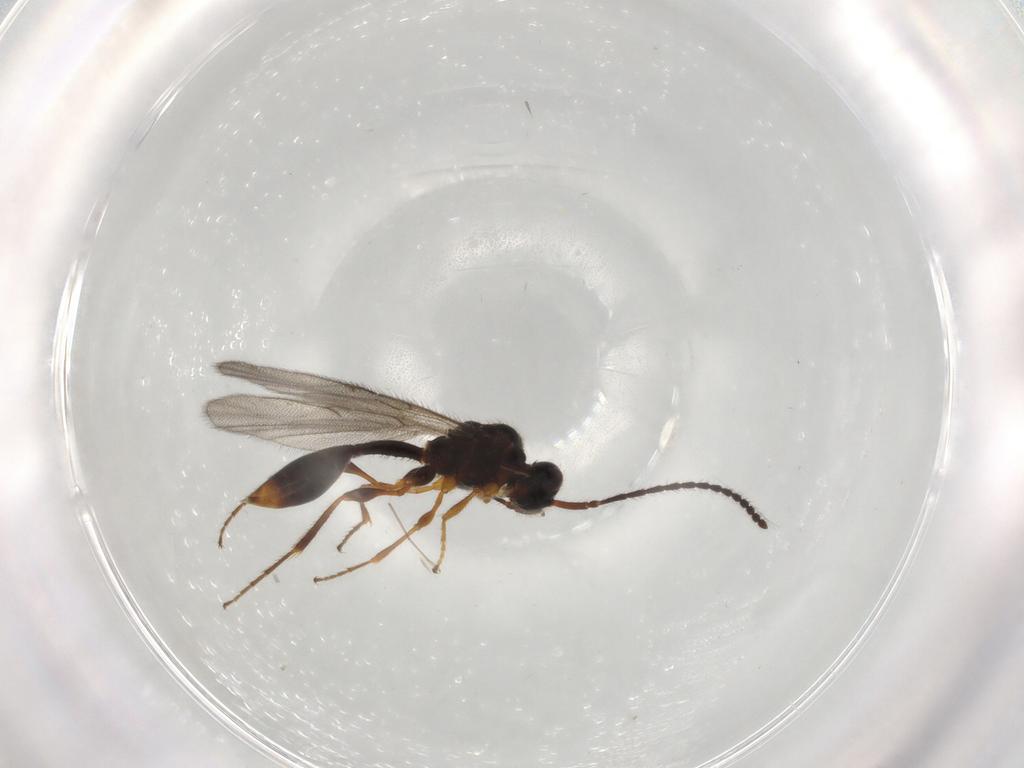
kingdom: Animalia
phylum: Arthropoda
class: Insecta
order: Hymenoptera
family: Diapriidae
